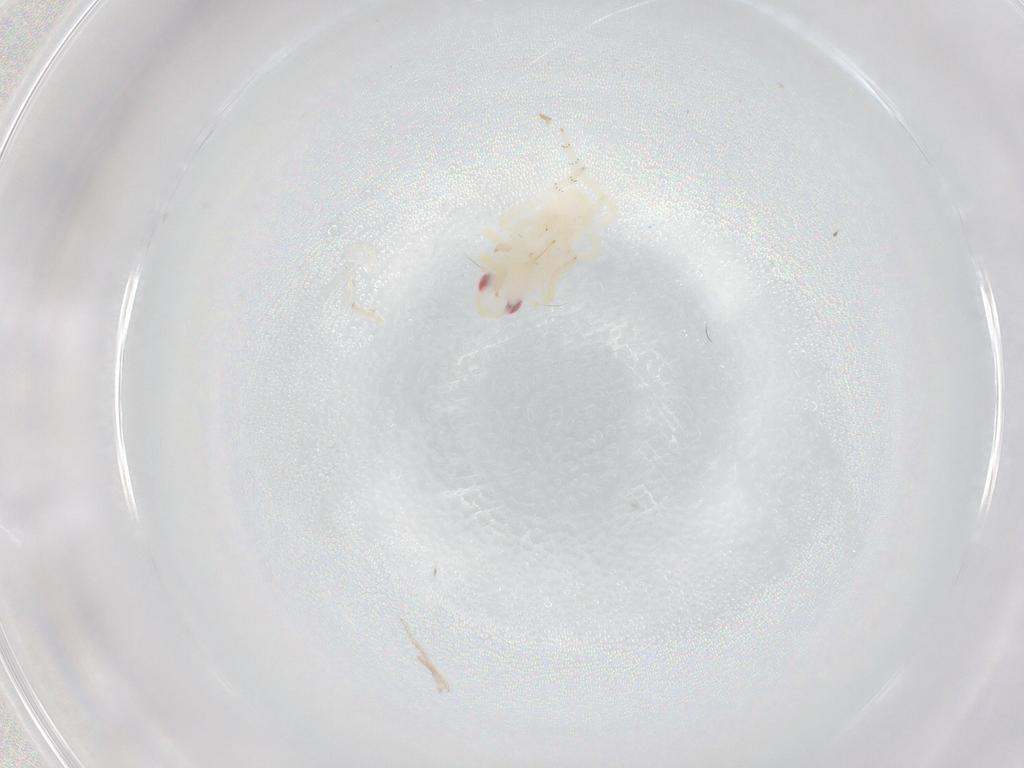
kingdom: Animalia
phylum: Arthropoda
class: Insecta
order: Hemiptera
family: Tropiduchidae
